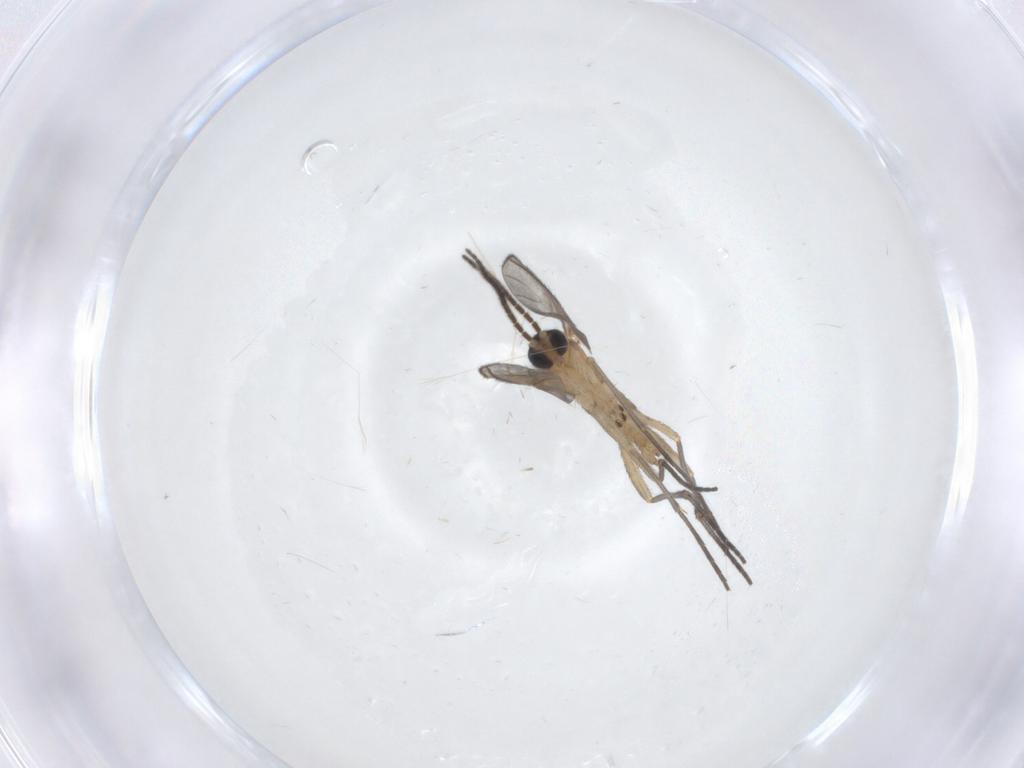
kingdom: Animalia
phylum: Arthropoda
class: Insecta
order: Diptera
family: Sciaridae
